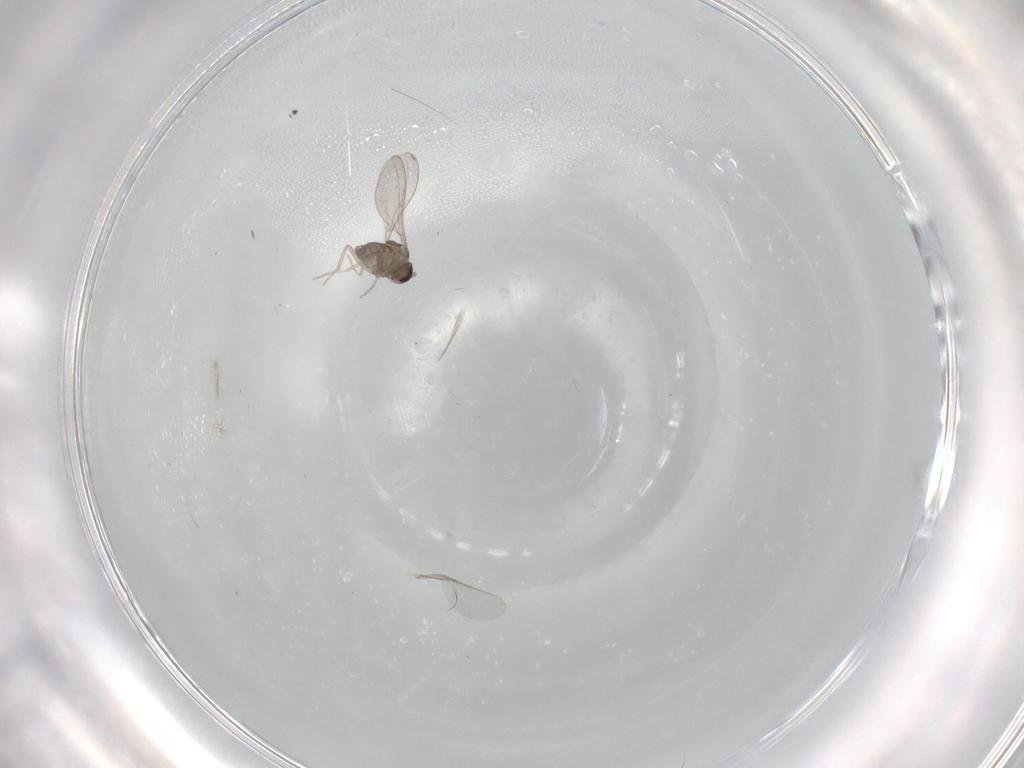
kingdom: Animalia
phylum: Arthropoda
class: Insecta
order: Diptera
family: Cecidomyiidae
